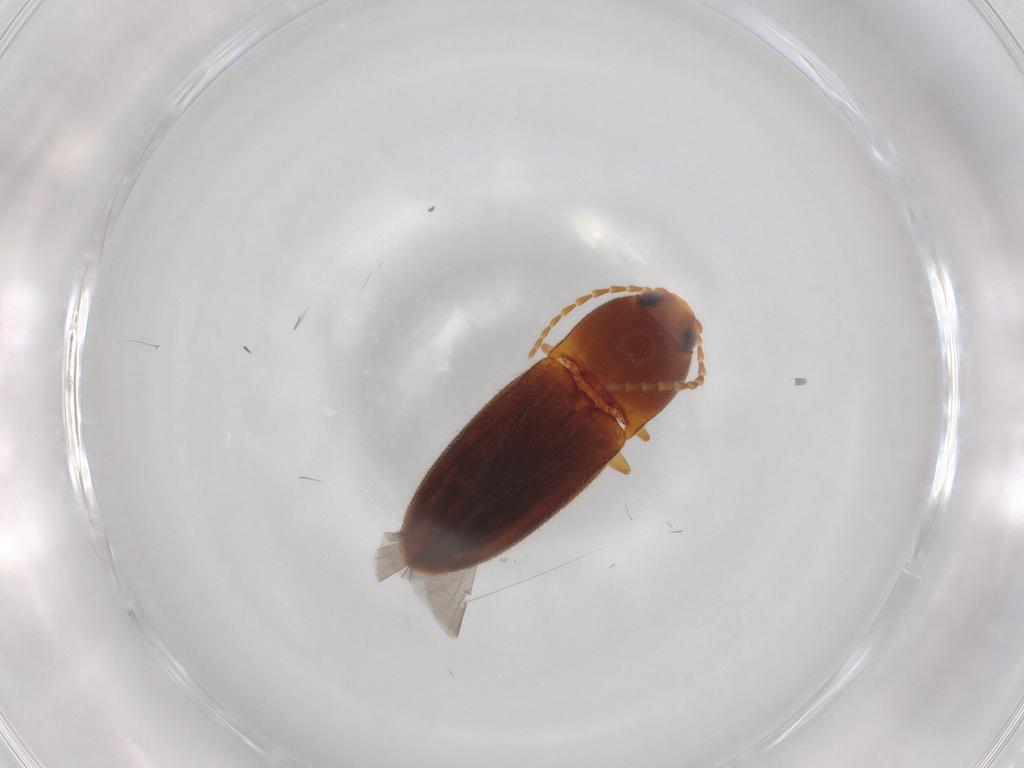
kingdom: Animalia
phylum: Arthropoda
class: Insecta
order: Coleoptera
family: Elateridae
